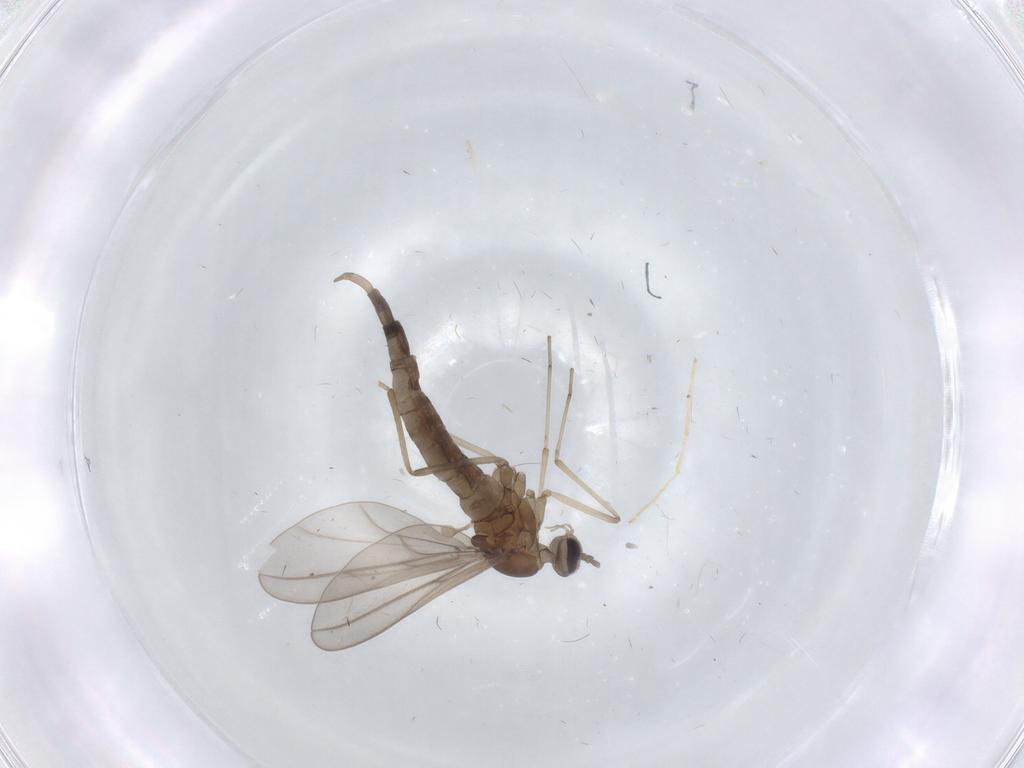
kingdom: Animalia
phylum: Arthropoda
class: Insecta
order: Diptera
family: Cecidomyiidae
